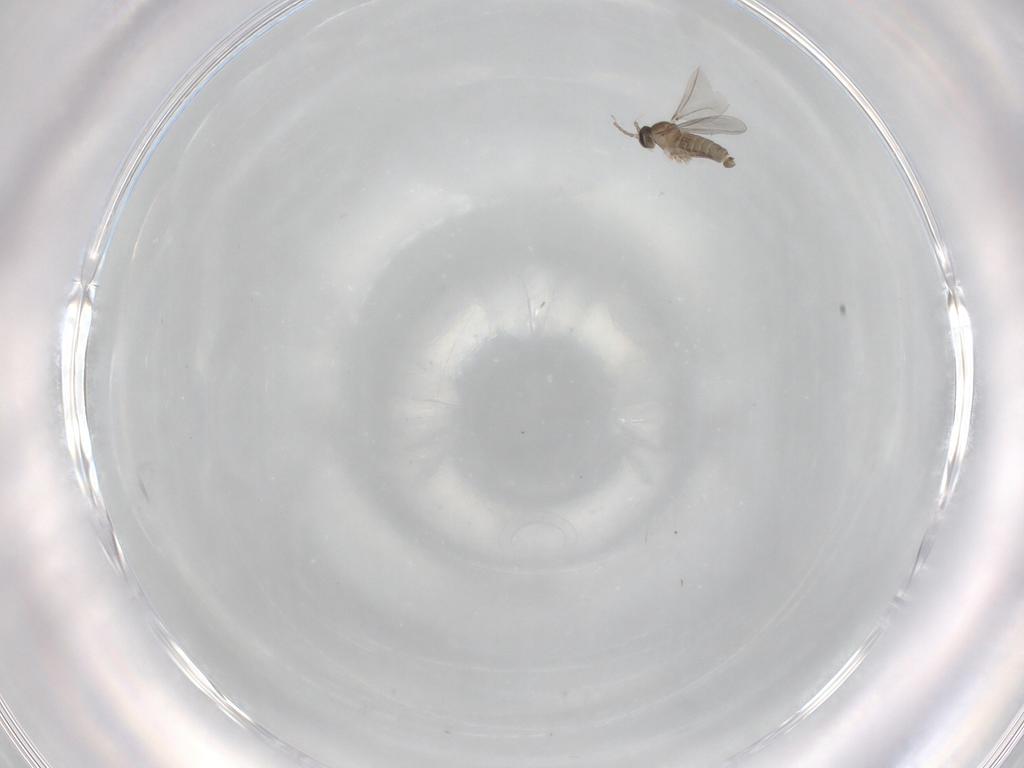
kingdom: Animalia
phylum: Arthropoda
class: Insecta
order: Diptera
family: Cecidomyiidae
